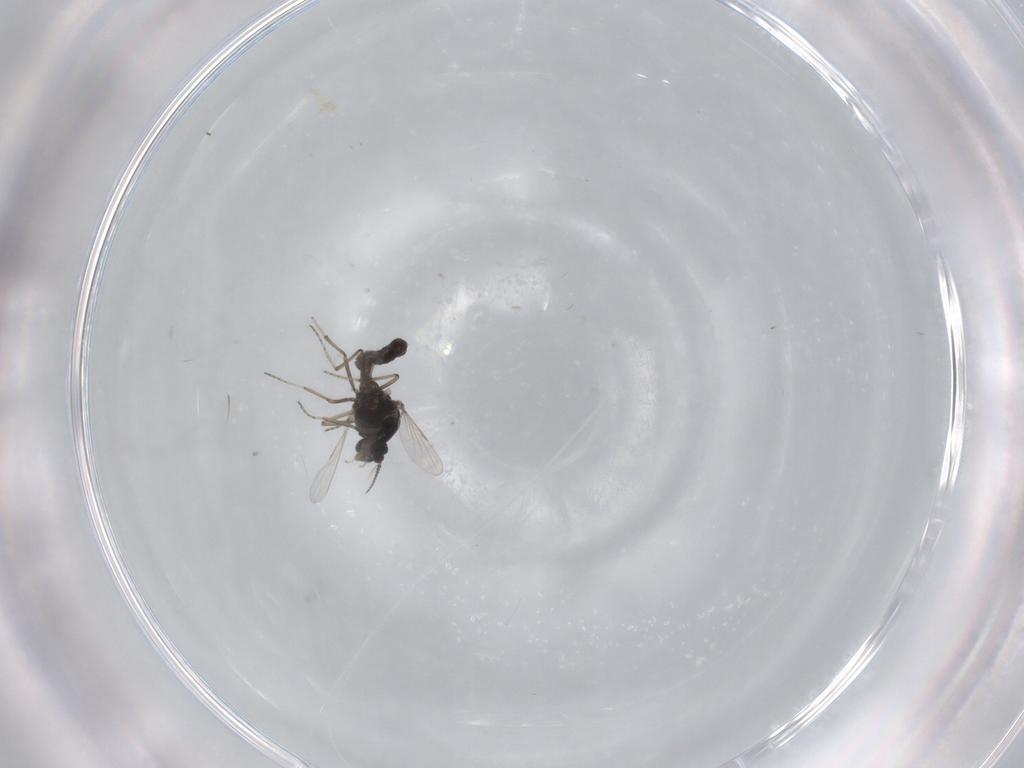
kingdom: Animalia
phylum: Arthropoda
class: Insecta
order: Diptera
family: Ceratopogonidae
